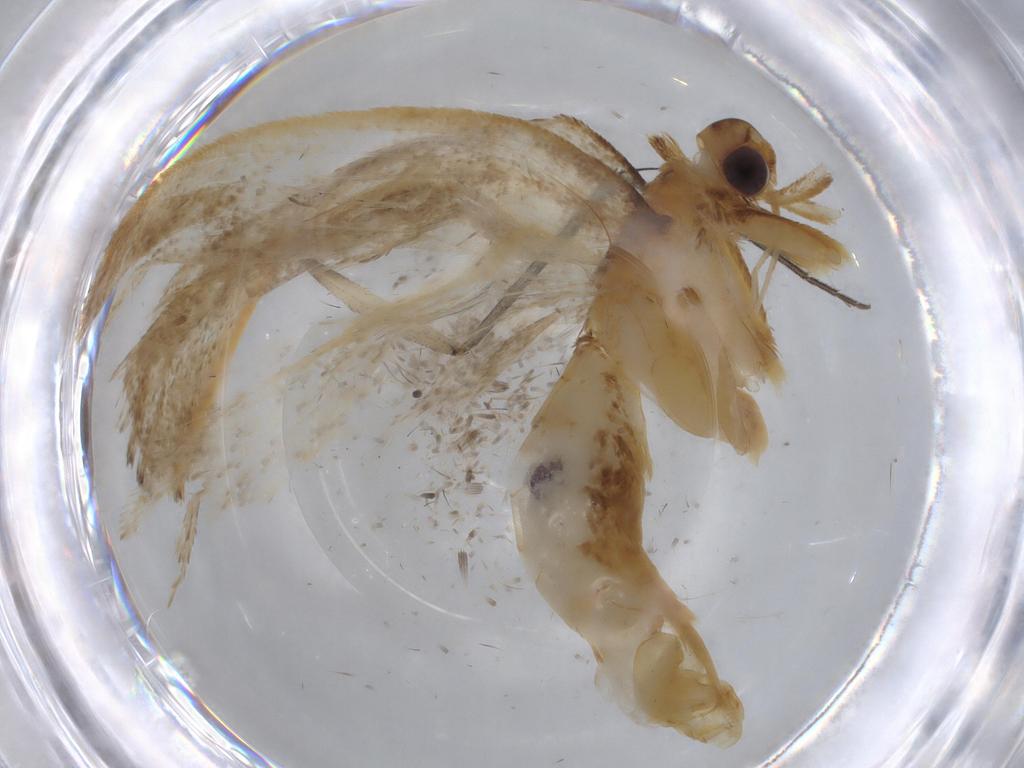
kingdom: Animalia
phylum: Arthropoda
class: Insecta
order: Lepidoptera
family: Lecithoceridae
